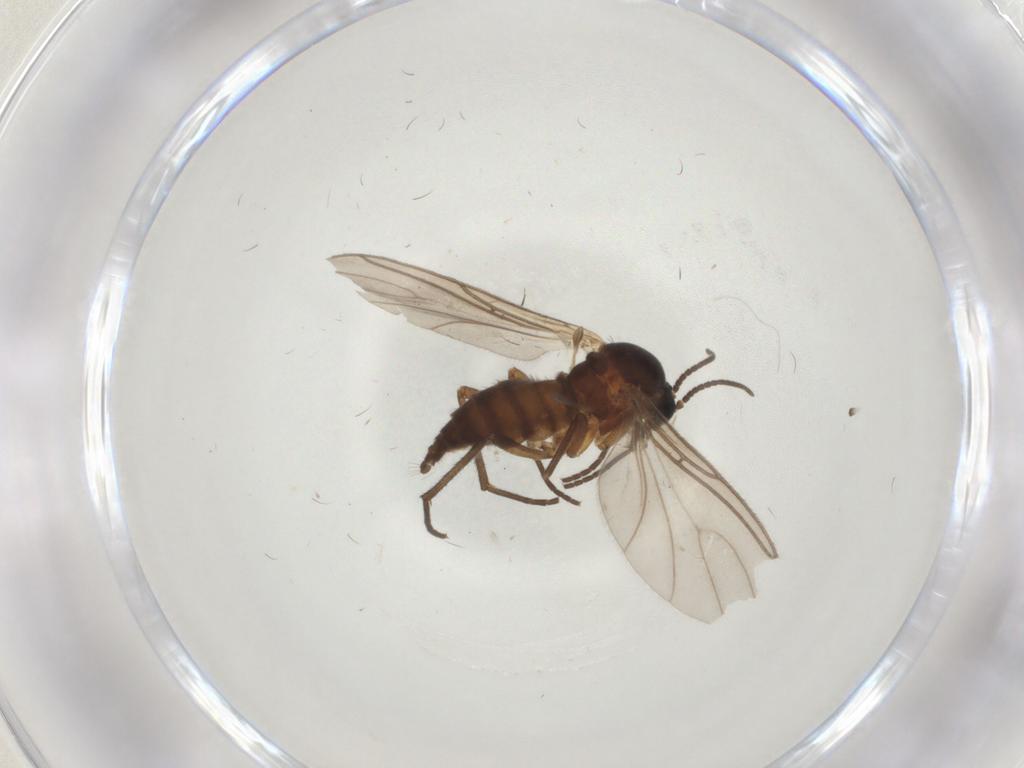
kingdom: Animalia
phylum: Arthropoda
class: Insecta
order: Diptera
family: Sciaridae
